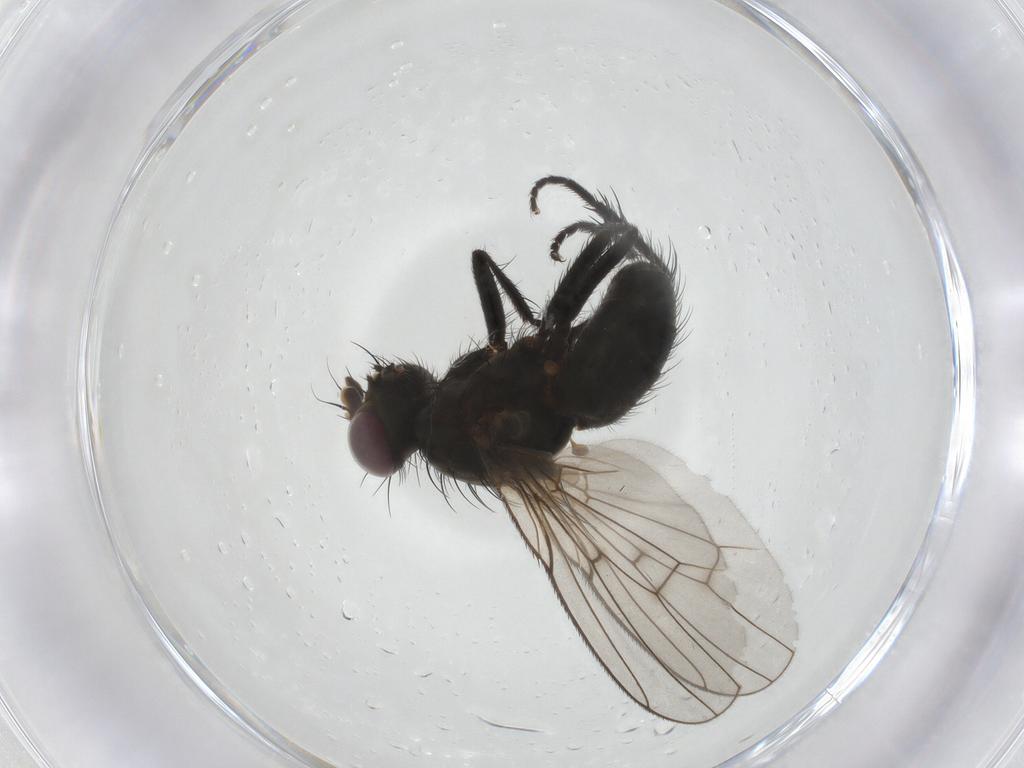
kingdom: Animalia
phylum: Arthropoda
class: Insecta
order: Diptera
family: Muscidae
